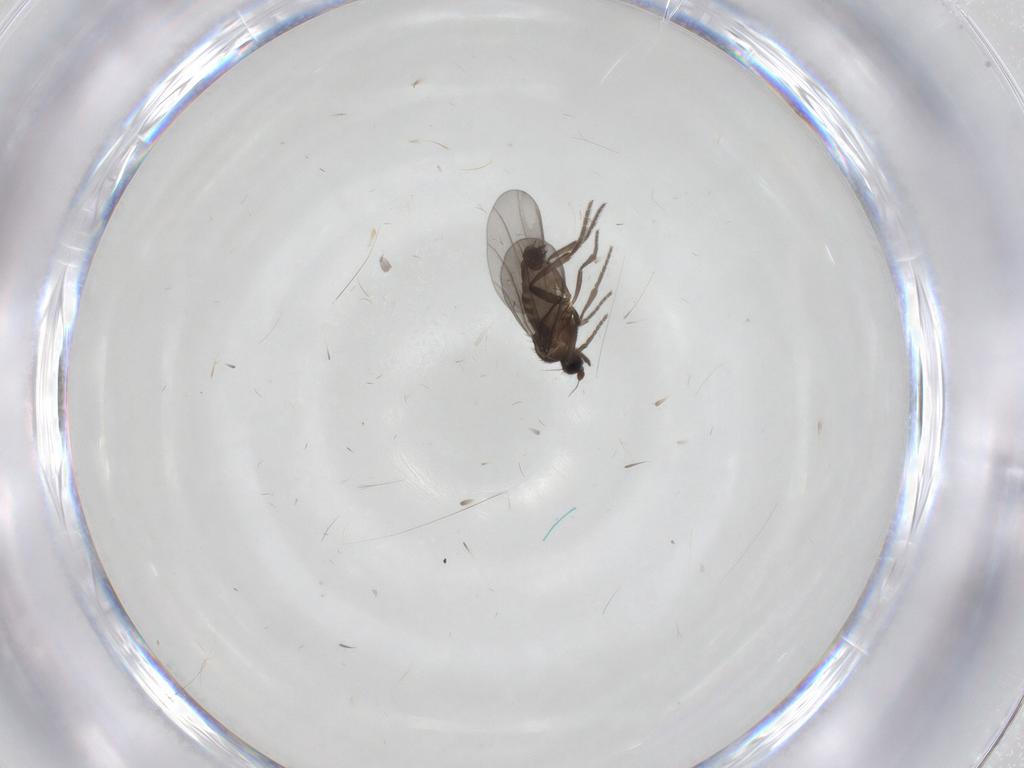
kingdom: Animalia
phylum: Arthropoda
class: Insecta
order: Diptera
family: Phoridae
